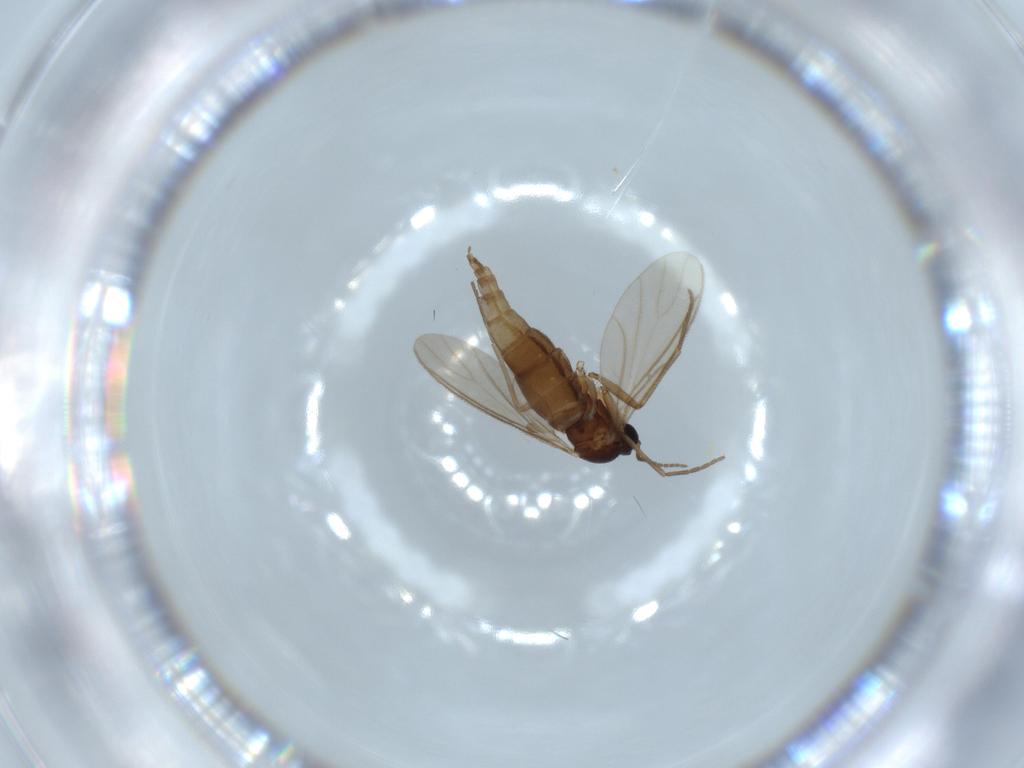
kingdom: Animalia
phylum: Arthropoda
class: Insecta
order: Diptera
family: Sciaridae
